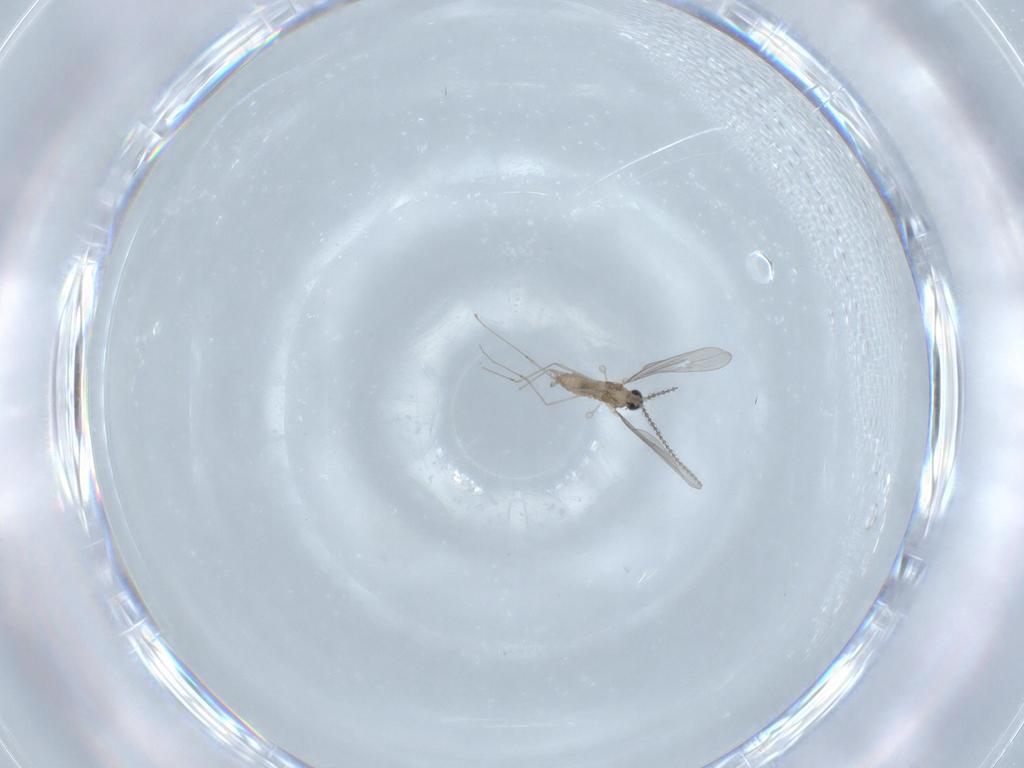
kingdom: Animalia
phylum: Arthropoda
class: Insecta
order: Diptera
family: Cecidomyiidae
